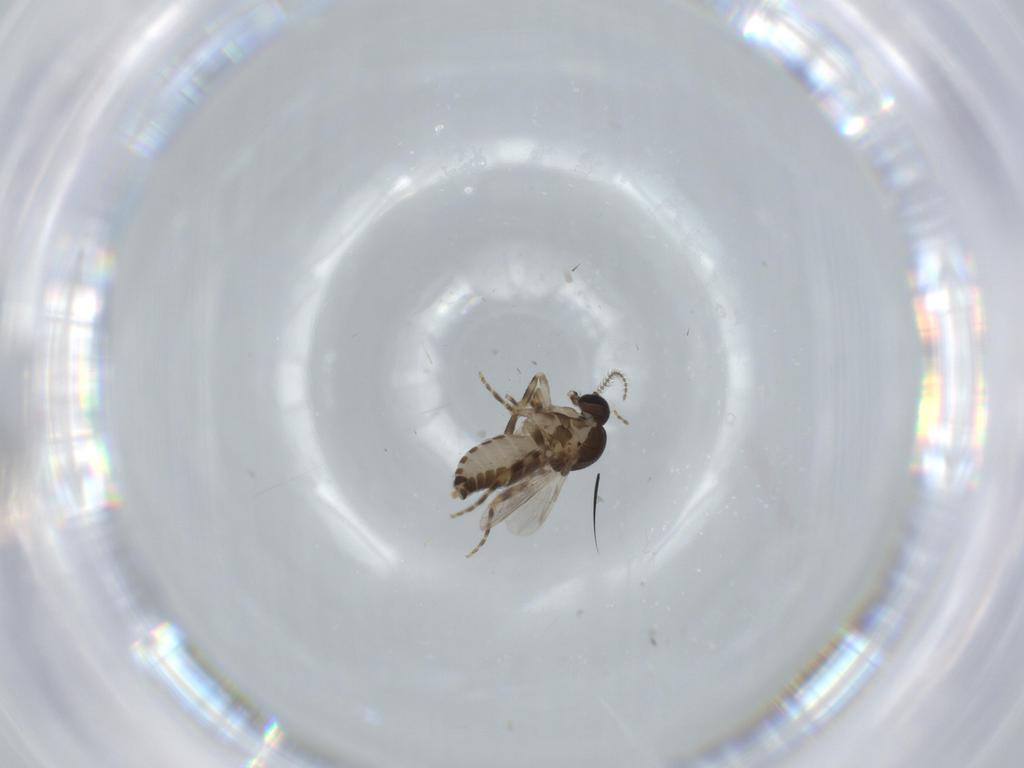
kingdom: Animalia
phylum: Arthropoda
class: Insecta
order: Diptera
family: Ceratopogonidae
